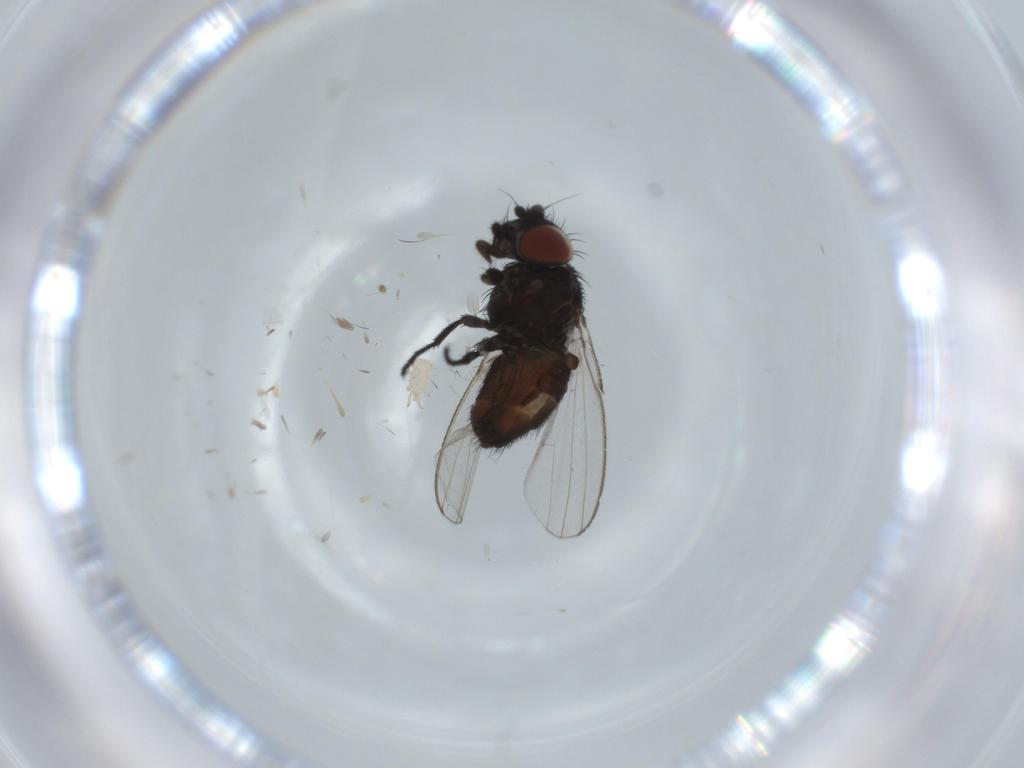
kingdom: Animalia
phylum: Arthropoda
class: Insecta
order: Diptera
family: Milichiidae
